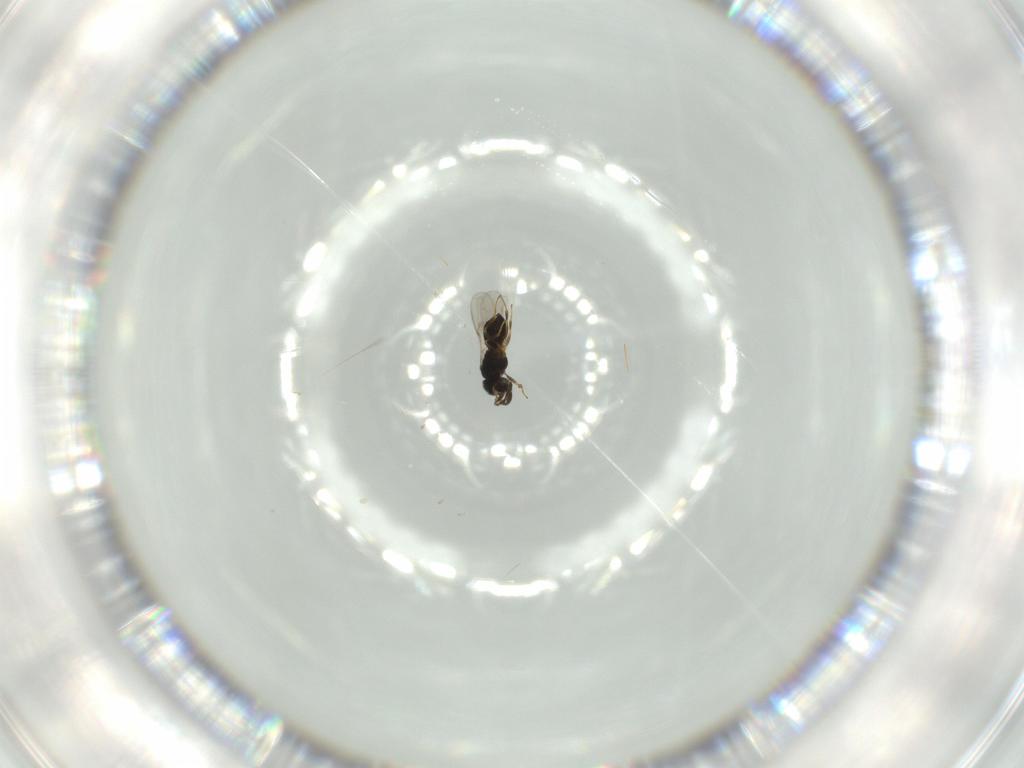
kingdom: Animalia
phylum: Arthropoda
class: Insecta
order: Hymenoptera
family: Scelionidae
